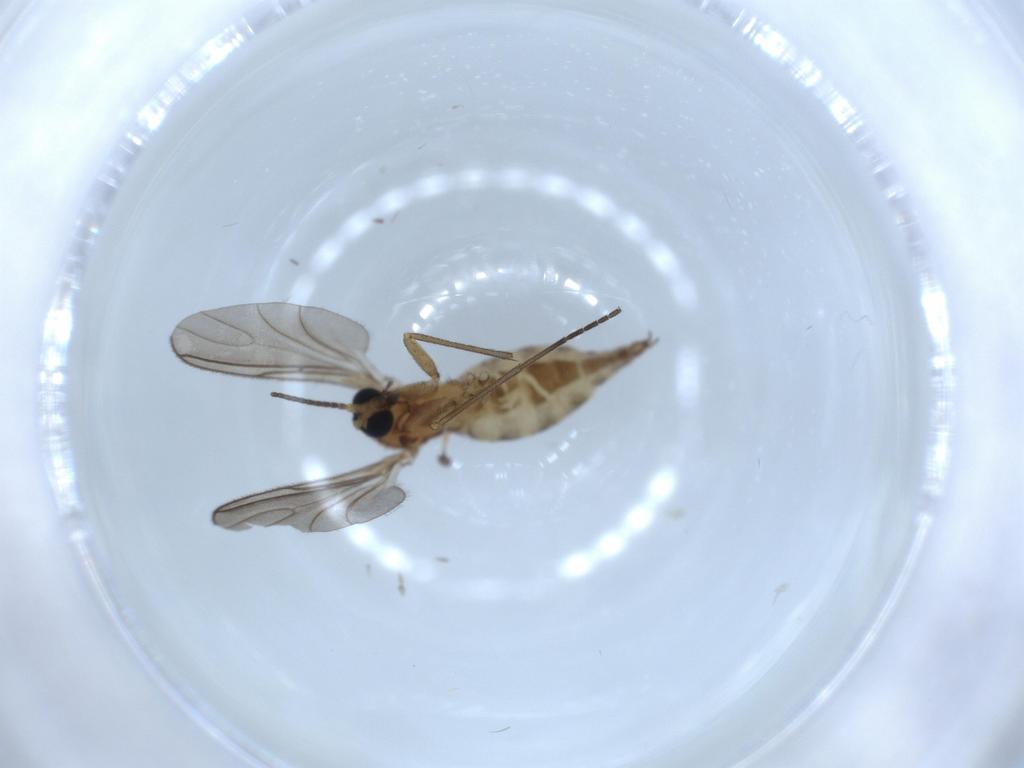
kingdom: Animalia
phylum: Arthropoda
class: Insecta
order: Diptera
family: Sciaridae
